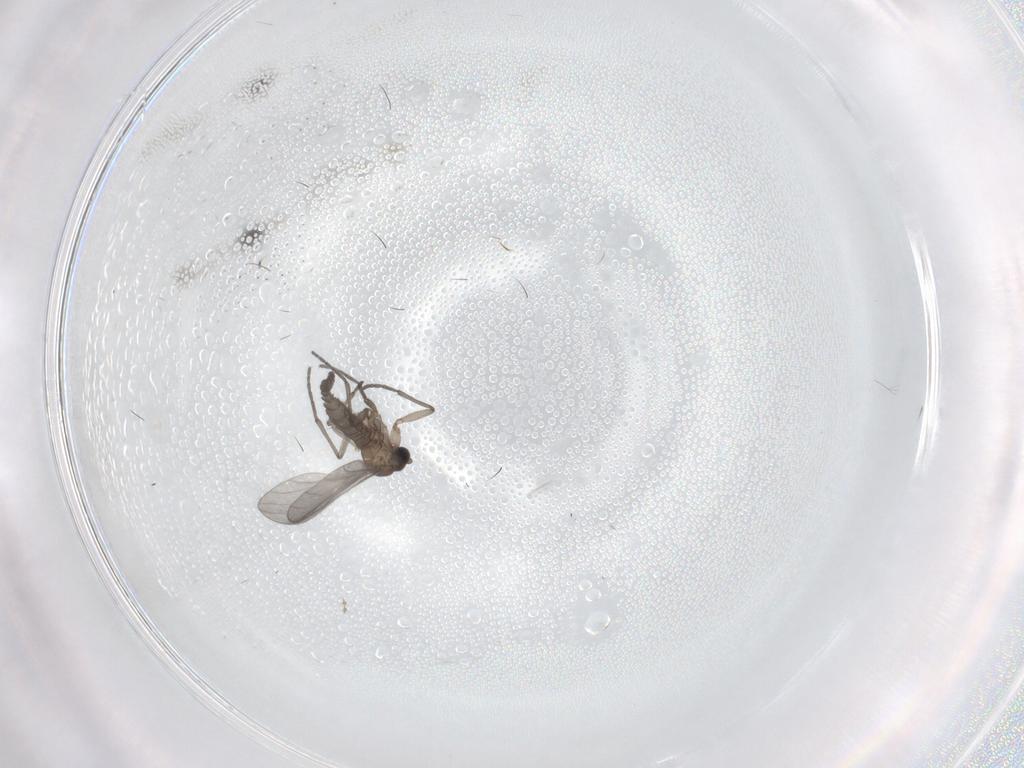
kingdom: Animalia
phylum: Arthropoda
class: Insecta
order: Diptera
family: Sciaridae
